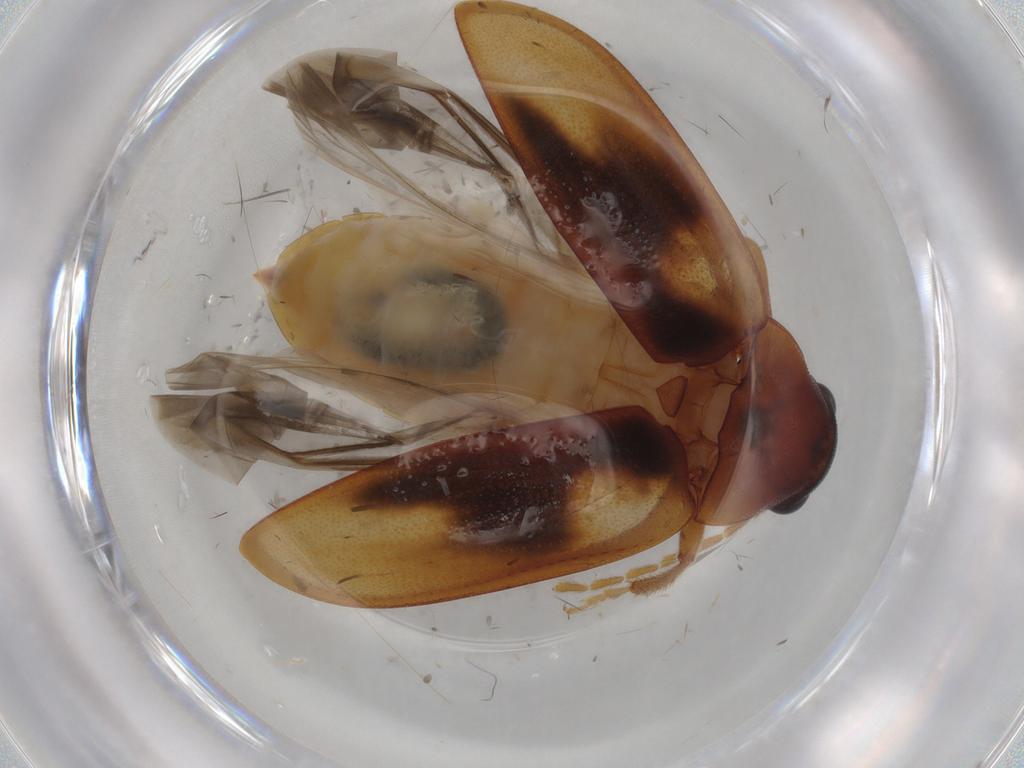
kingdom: Animalia
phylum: Arthropoda
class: Insecta
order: Coleoptera
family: Ptilodactylidae
